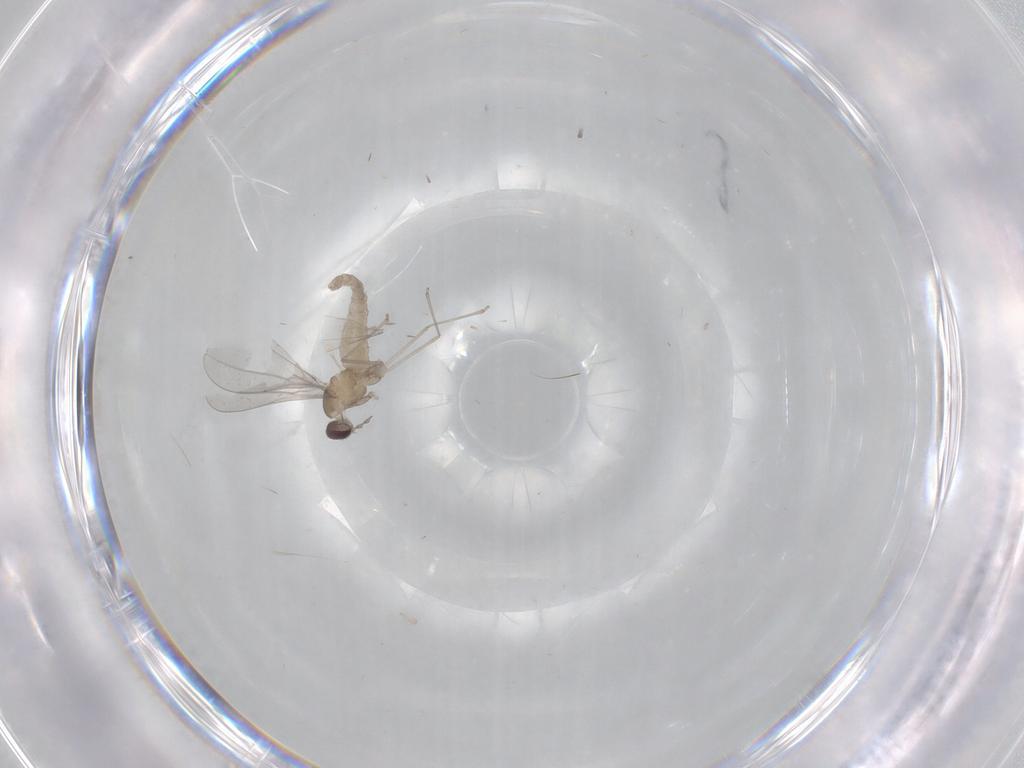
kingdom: Animalia
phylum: Arthropoda
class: Insecta
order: Diptera
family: Cecidomyiidae
